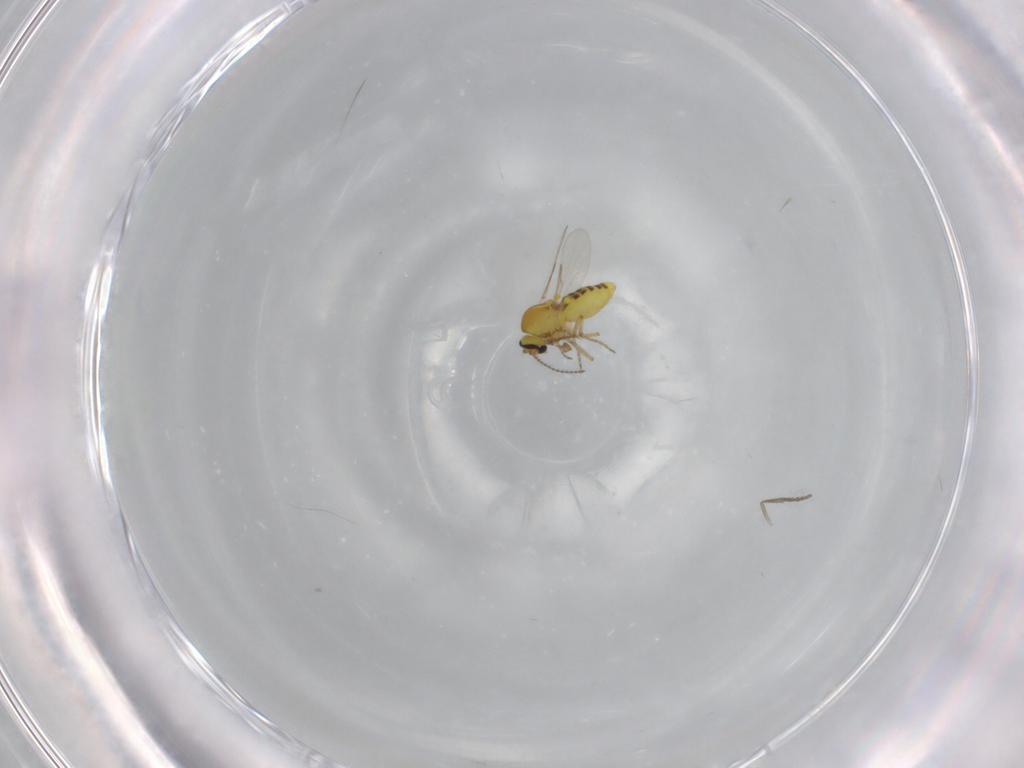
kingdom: Animalia
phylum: Arthropoda
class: Insecta
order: Diptera
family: Ceratopogonidae
